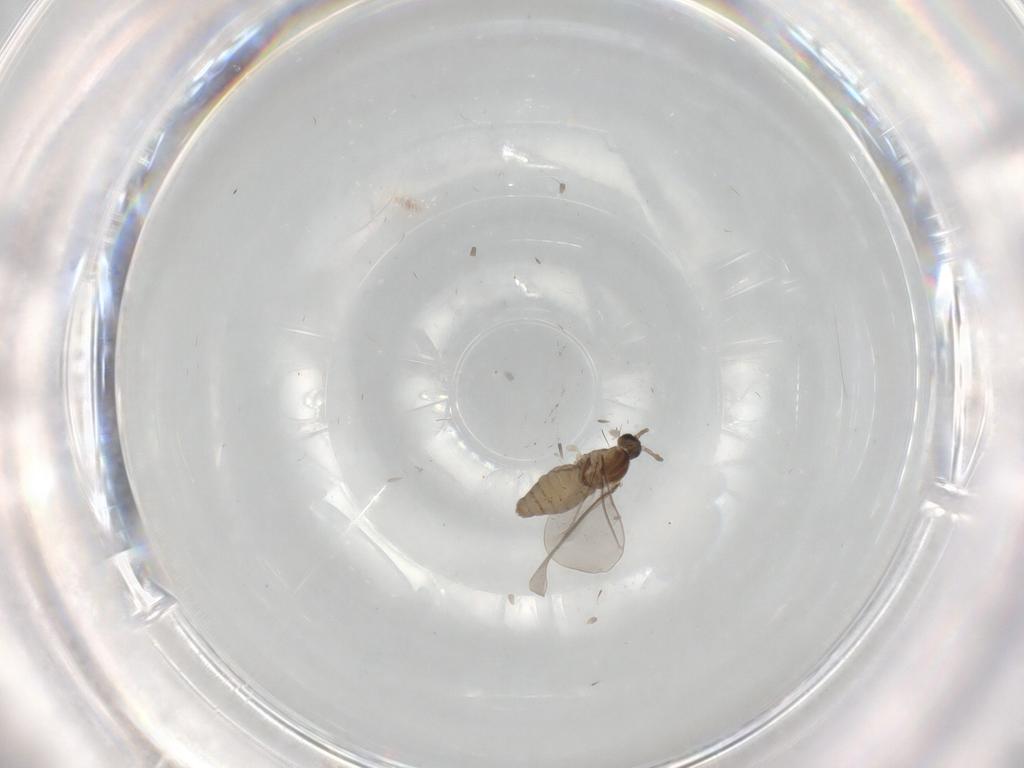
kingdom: Animalia
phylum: Arthropoda
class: Insecta
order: Diptera
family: Cecidomyiidae
